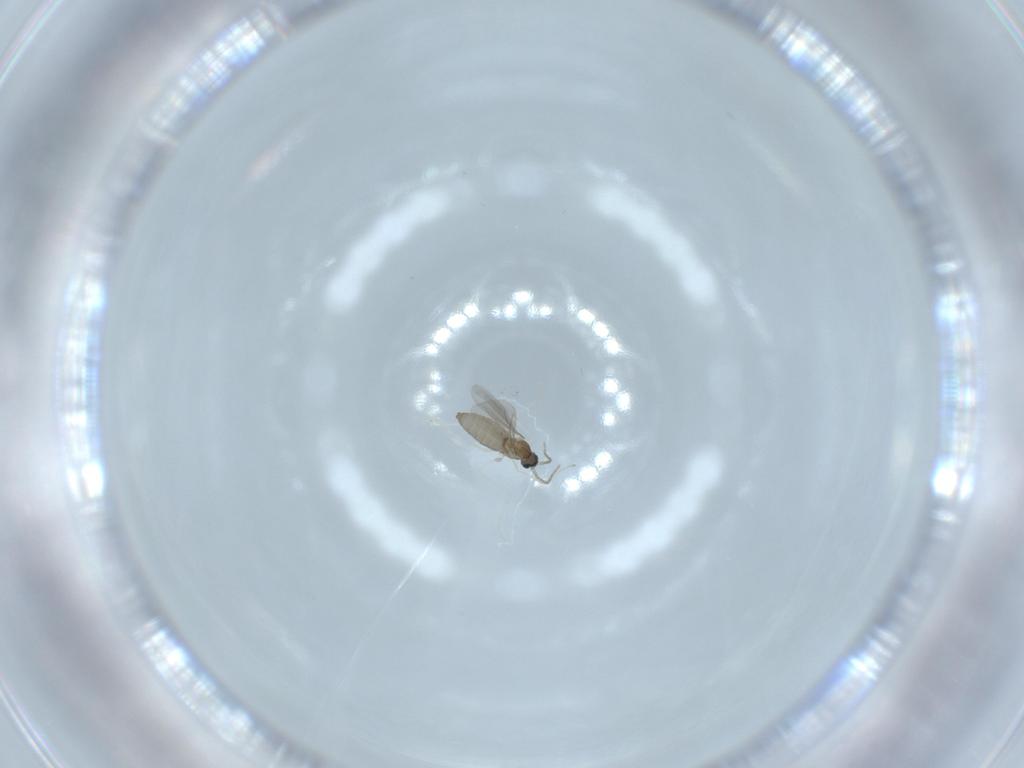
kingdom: Animalia
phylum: Arthropoda
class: Insecta
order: Diptera
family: Cecidomyiidae
